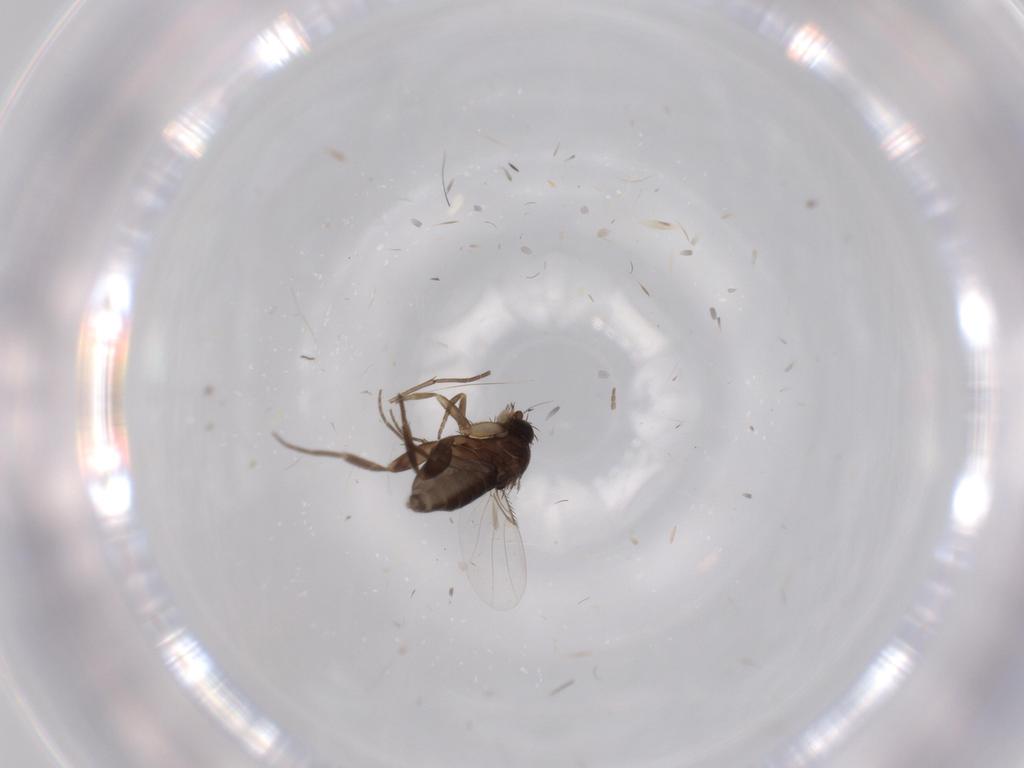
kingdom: Animalia
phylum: Arthropoda
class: Insecta
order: Diptera
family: Phoridae
